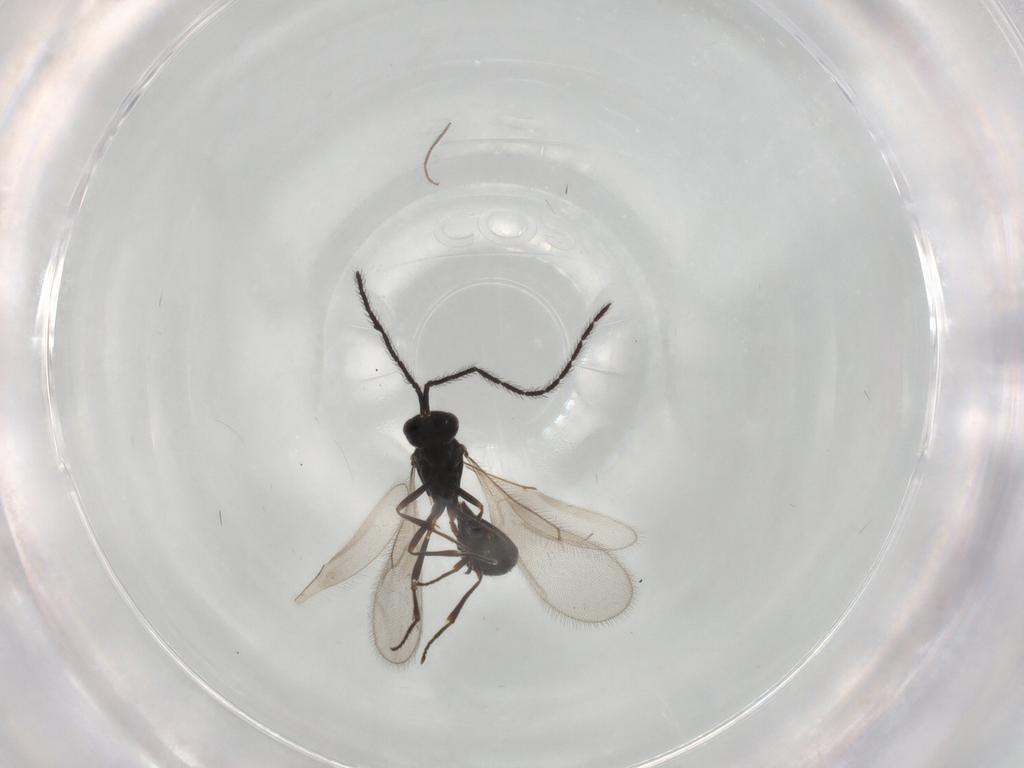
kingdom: Animalia
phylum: Arthropoda
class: Insecta
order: Hymenoptera
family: Scelionidae
